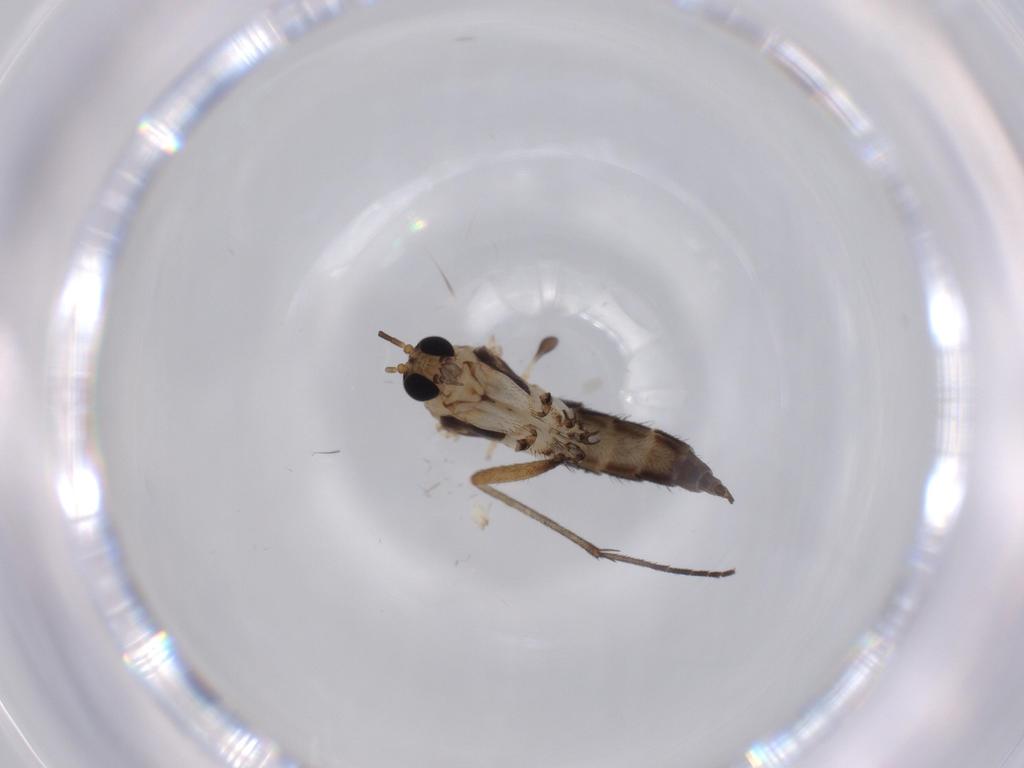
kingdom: Animalia
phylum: Arthropoda
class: Insecta
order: Diptera
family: Sciaridae
